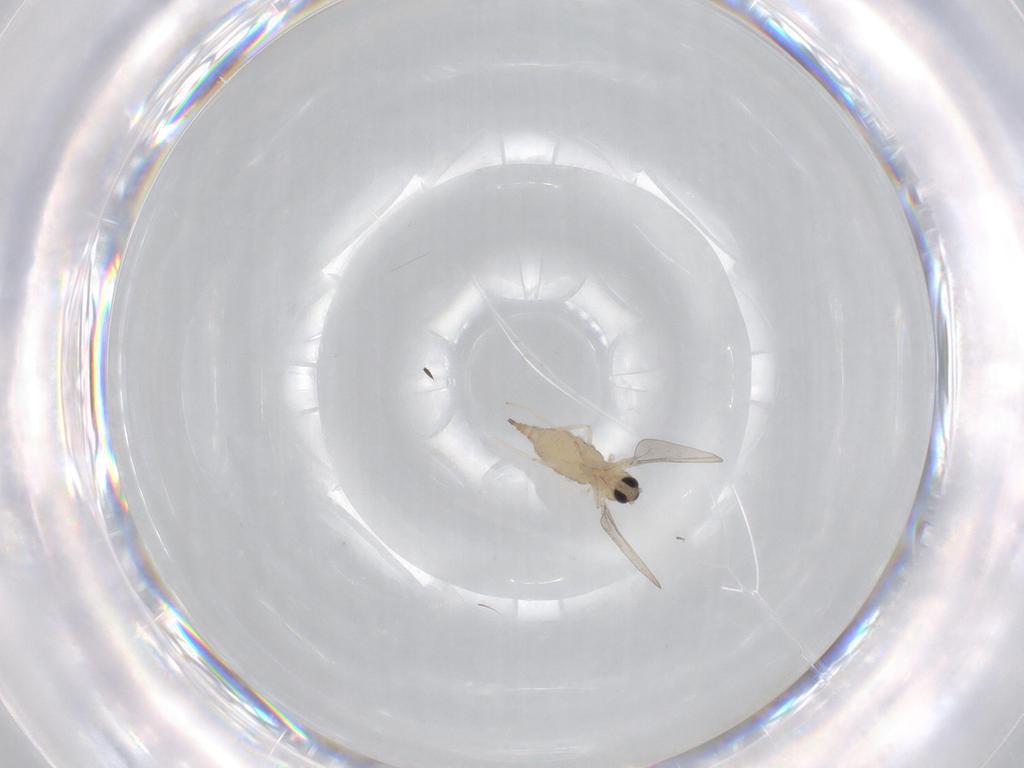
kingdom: Animalia
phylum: Arthropoda
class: Insecta
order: Diptera
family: Cecidomyiidae
